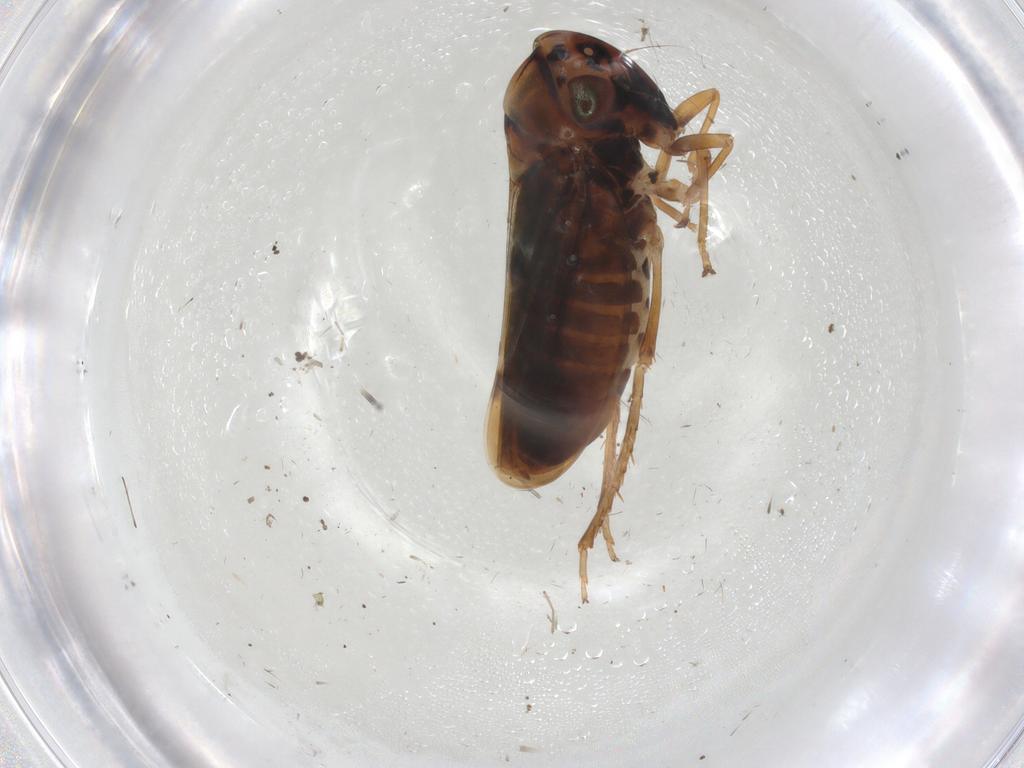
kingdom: Animalia
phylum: Arthropoda
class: Insecta
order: Hemiptera
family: Cicadellidae
